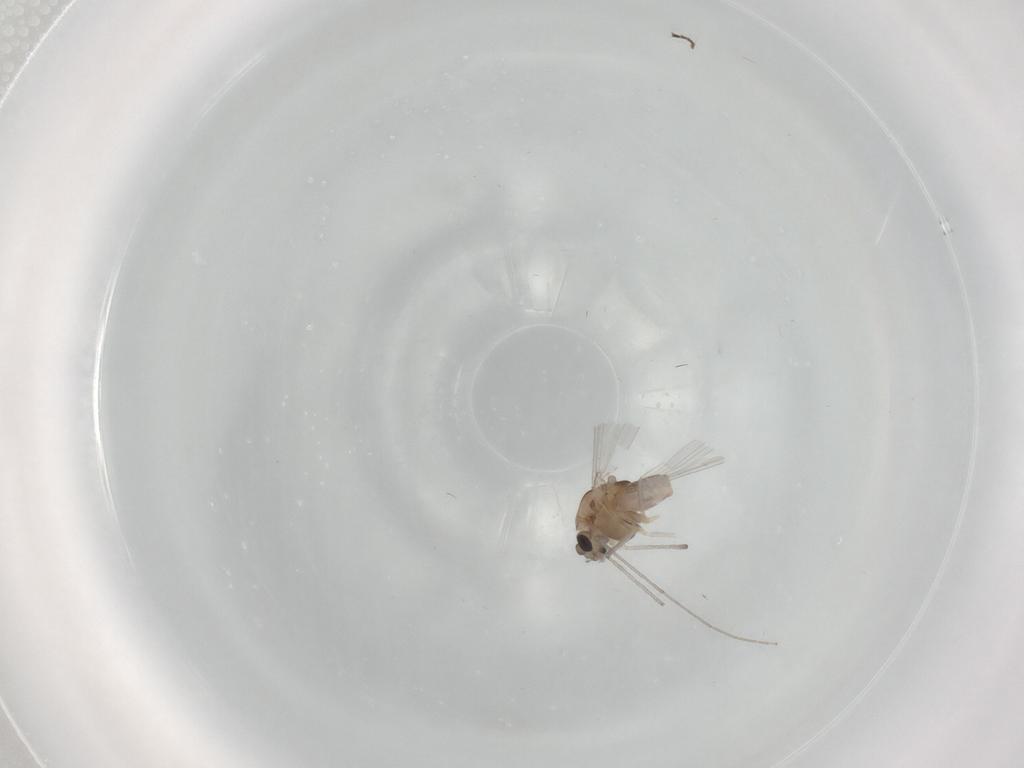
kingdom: Animalia
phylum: Arthropoda
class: Insecta
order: Diptera
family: Chironomidae
